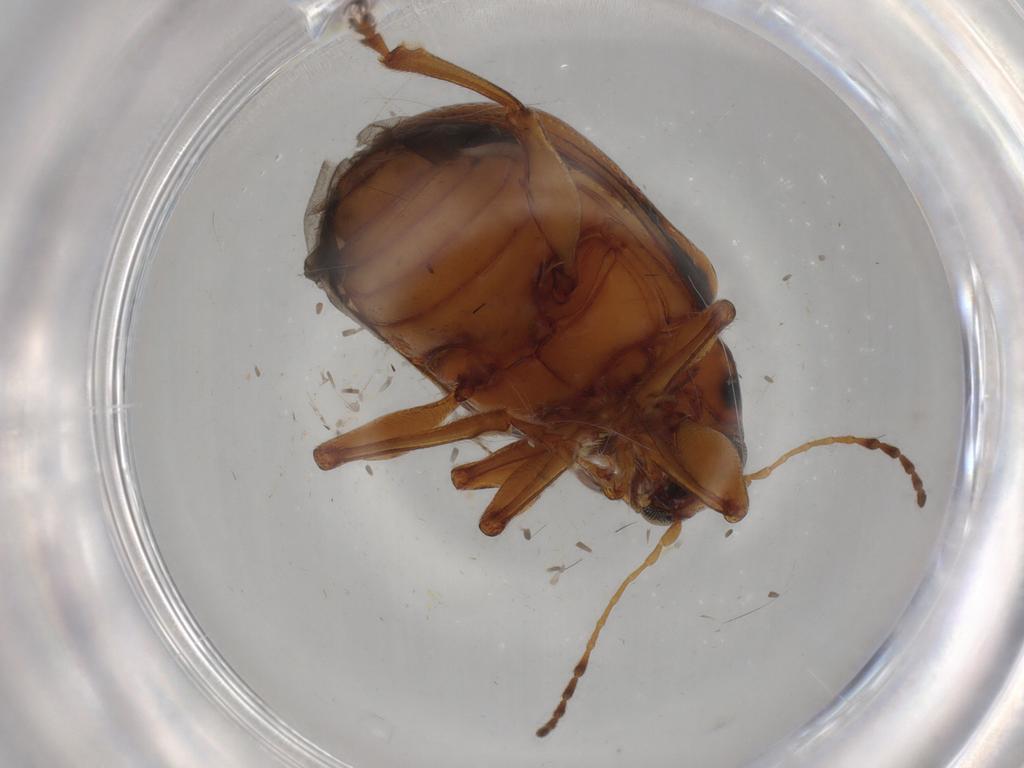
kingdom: Animalia
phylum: Arthropoda
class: Insecta
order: Coleoptera
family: Chrysomelidae
